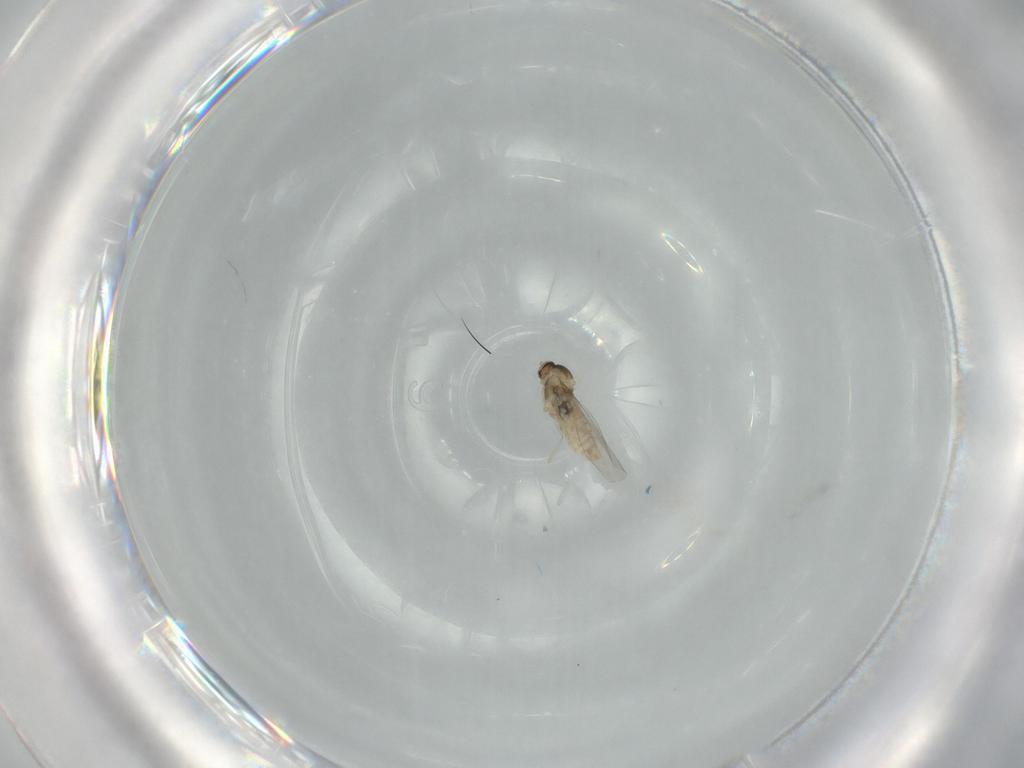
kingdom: Animalia
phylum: Arthropoda
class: Insecta
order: Diptera
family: Cecidomyiidae
